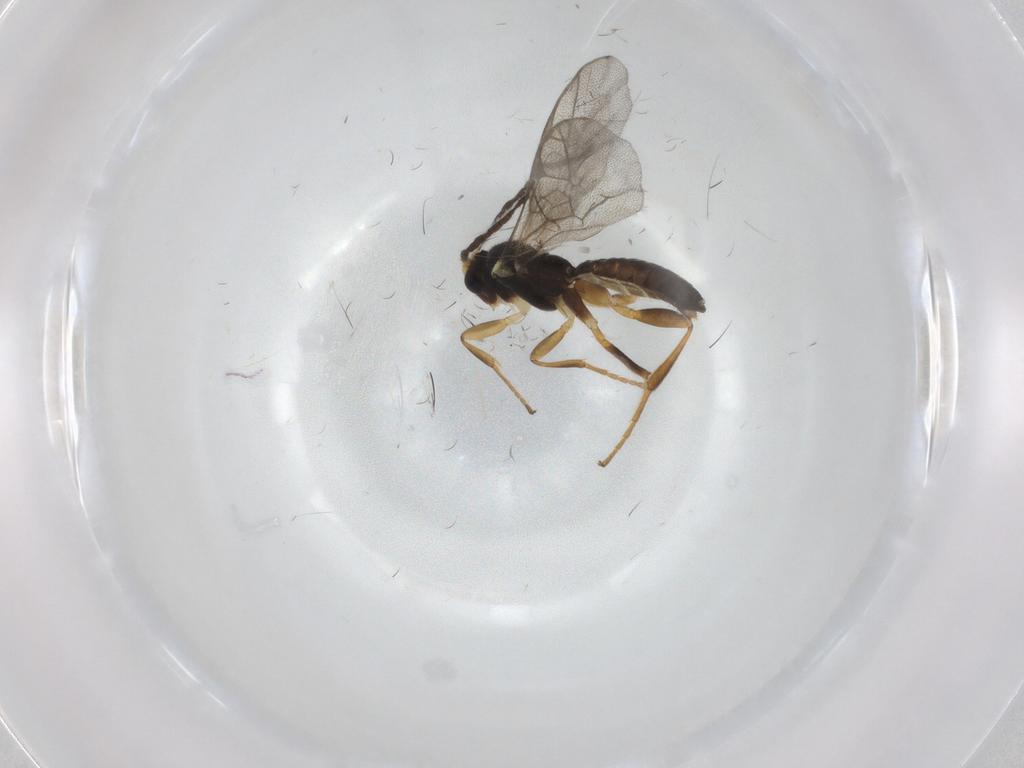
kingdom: Animalia
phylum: Arthropoda
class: Insecta
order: Hymenoptera
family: Ichneumonidae
